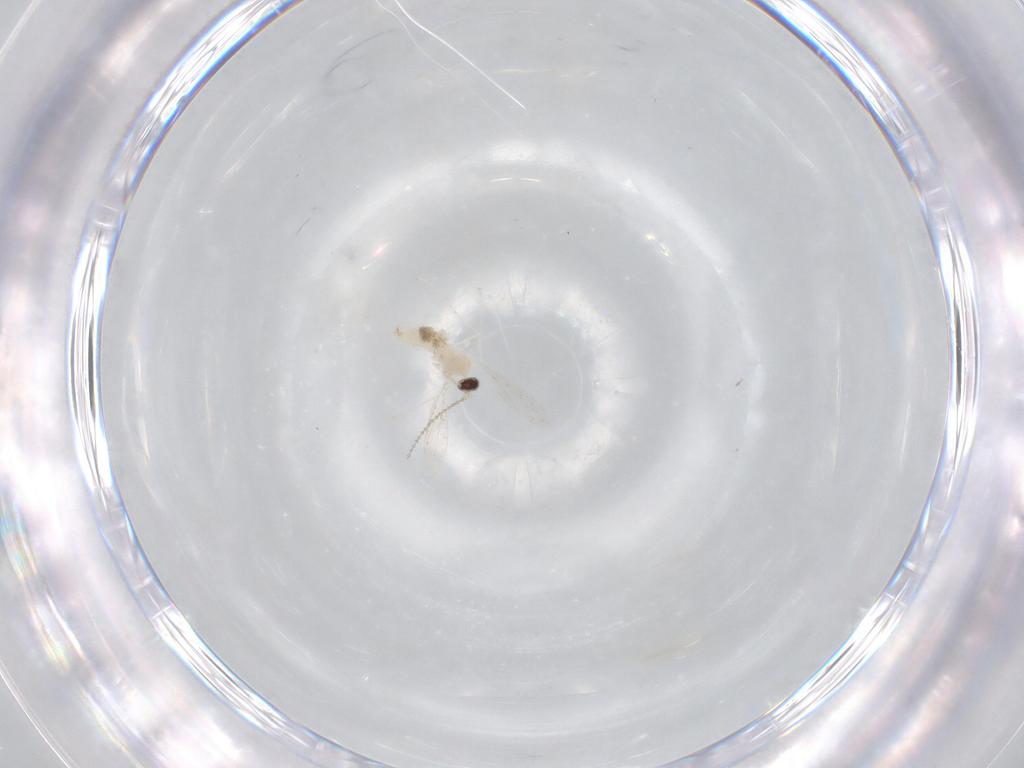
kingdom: Animalia
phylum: Arthropoda
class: Insecta
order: Diptera
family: Cecidomyiidae
